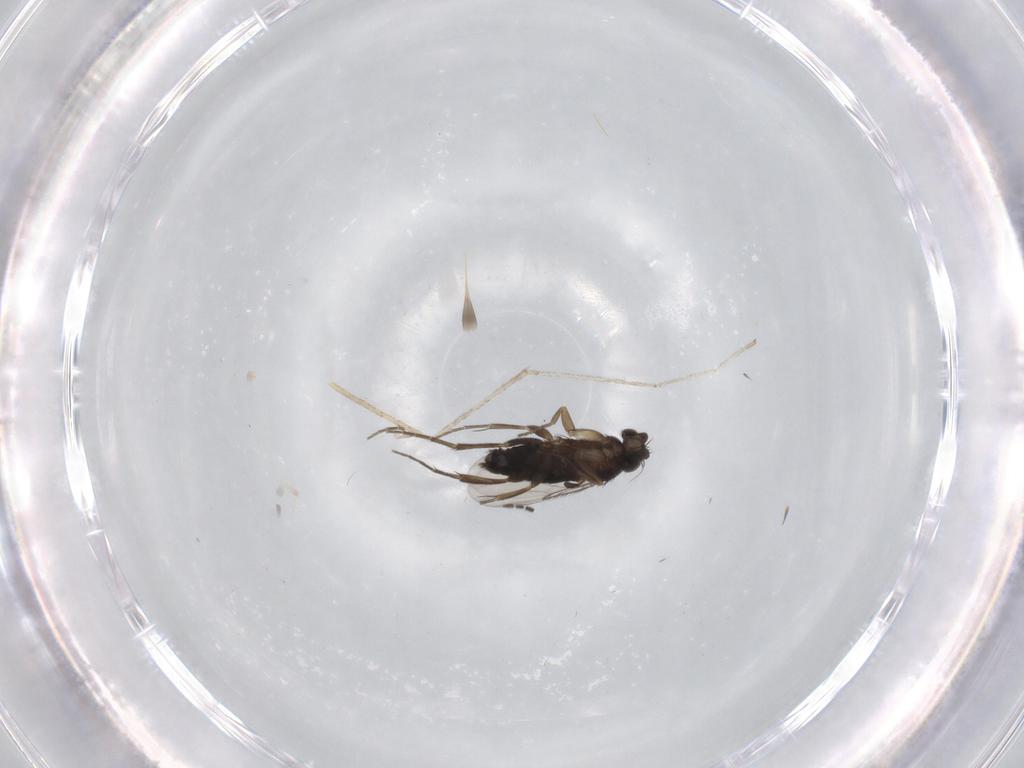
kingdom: Animalia
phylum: Arthropoda
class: Insecta
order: Diptera
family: Cecidomyiidae
